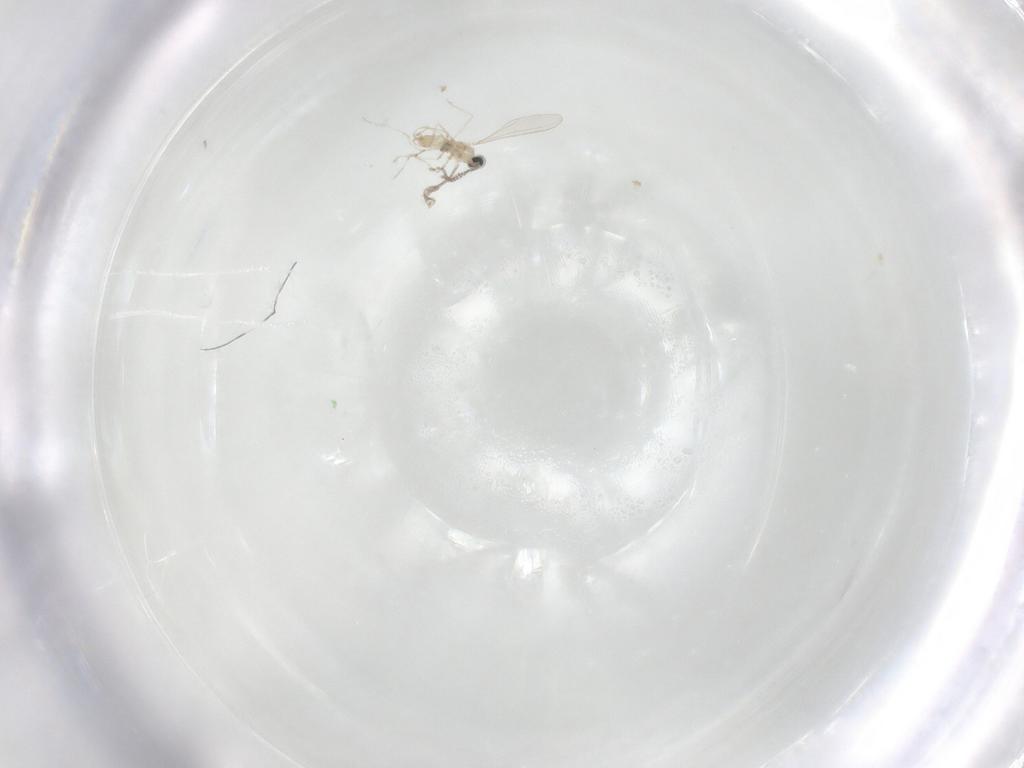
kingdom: Animalia
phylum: Arthropoda
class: Insecta
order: Diptera
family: Cecidomyiidae
